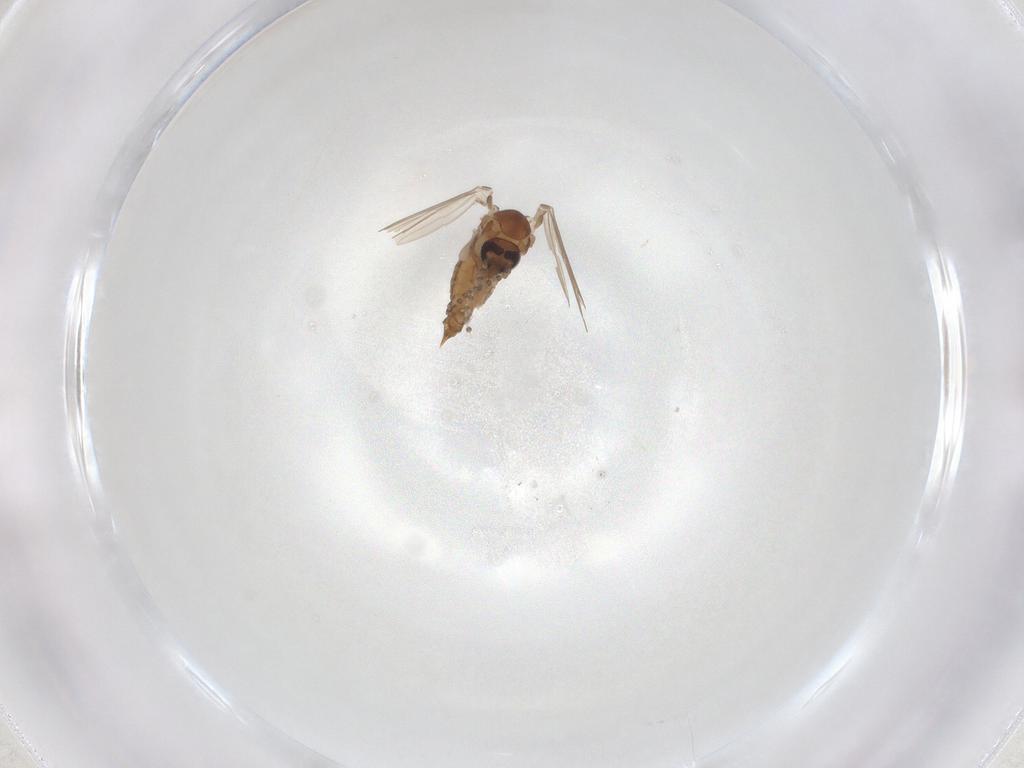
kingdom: Animalia
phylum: Arthropoda
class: Insecta
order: Diptera
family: Psychodidae
